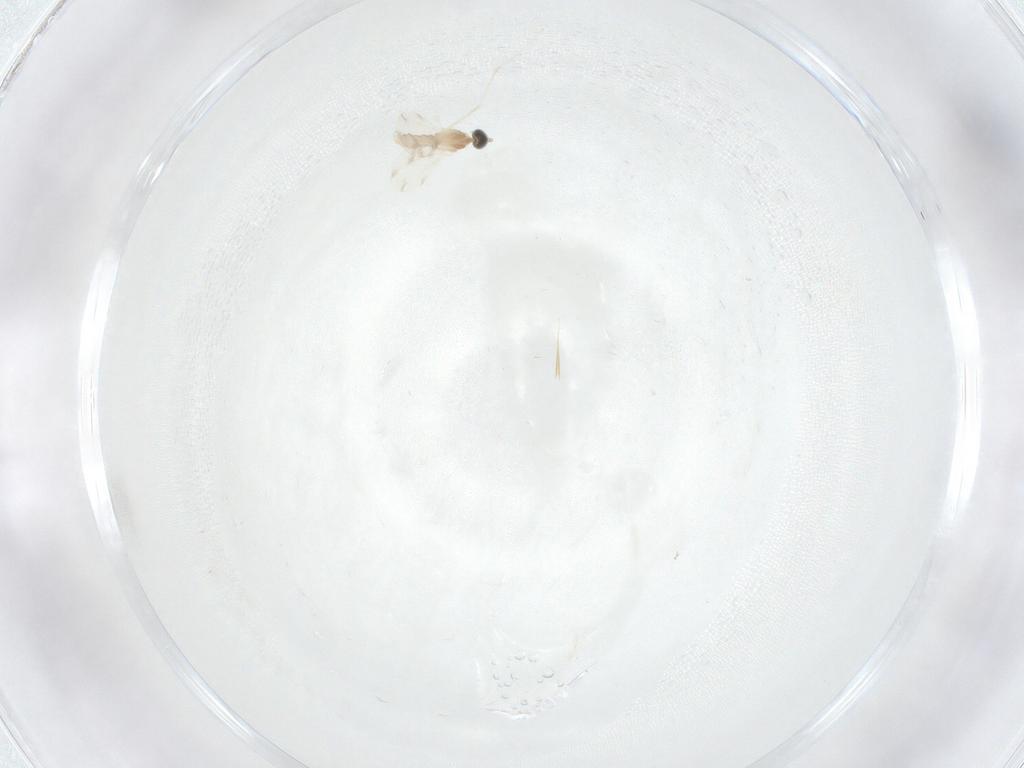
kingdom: Animalia
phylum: Arthropoda
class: Insecta
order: Diptera
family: Cecidomyiidae
